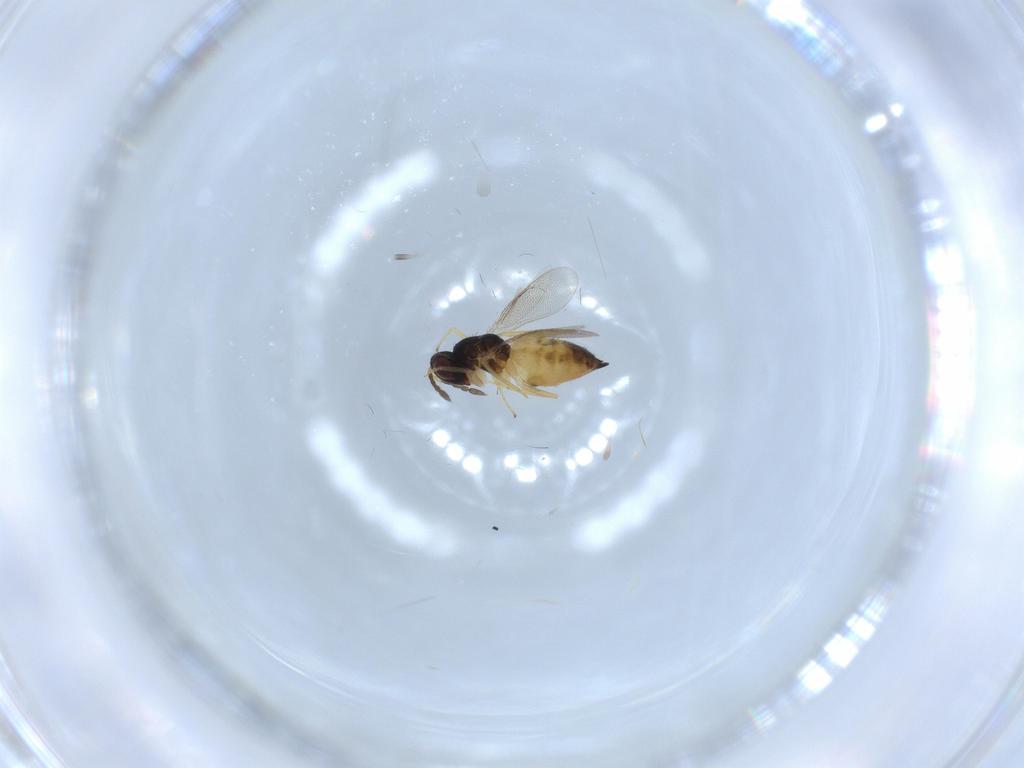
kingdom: Animalia
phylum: Arthropoda
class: Insecta
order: Hymenoptera
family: Eulophidae
